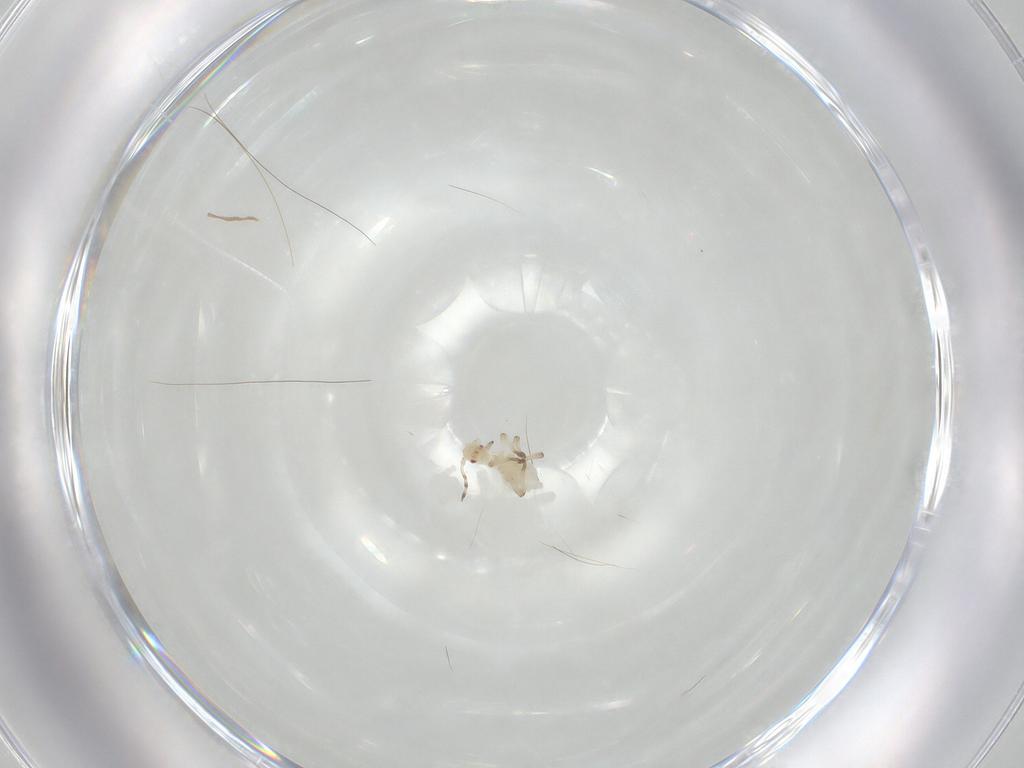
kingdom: Animalia
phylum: Arthropoda
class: Insecta
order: Hemiptera
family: Aphididae
